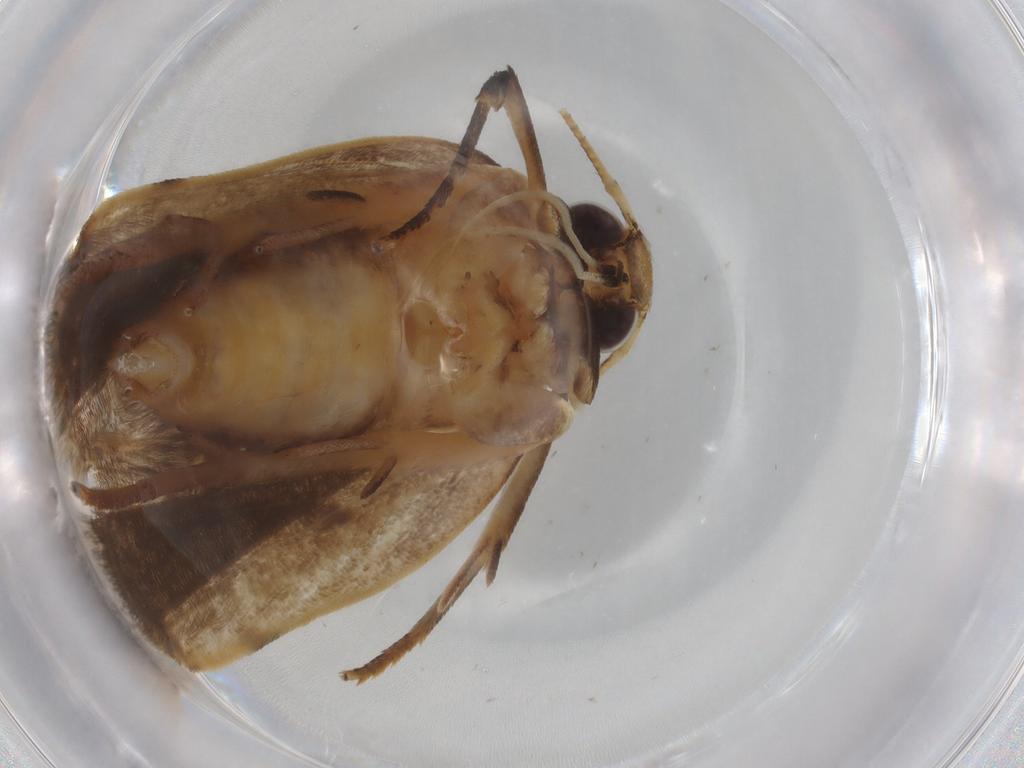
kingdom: Animalia
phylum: Arthropoda
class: Insecta
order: Lepidoptera
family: Lecithoceridae
